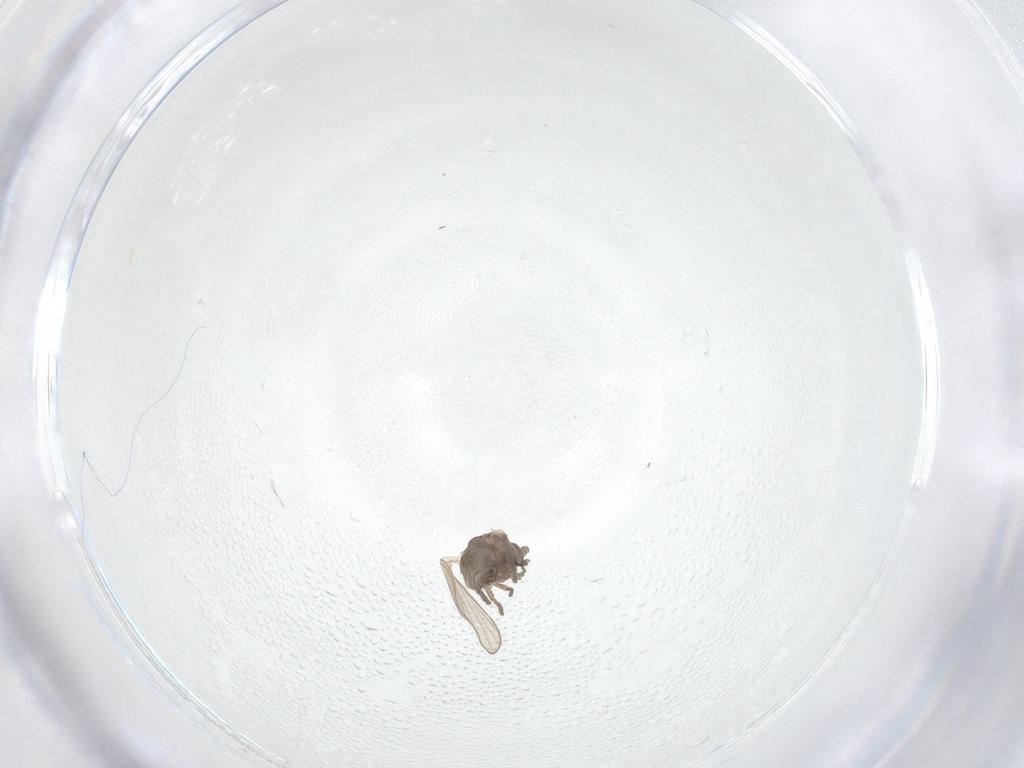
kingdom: Animalia
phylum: Arthropoda
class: Insecta
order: Diptera
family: Psychodidae
